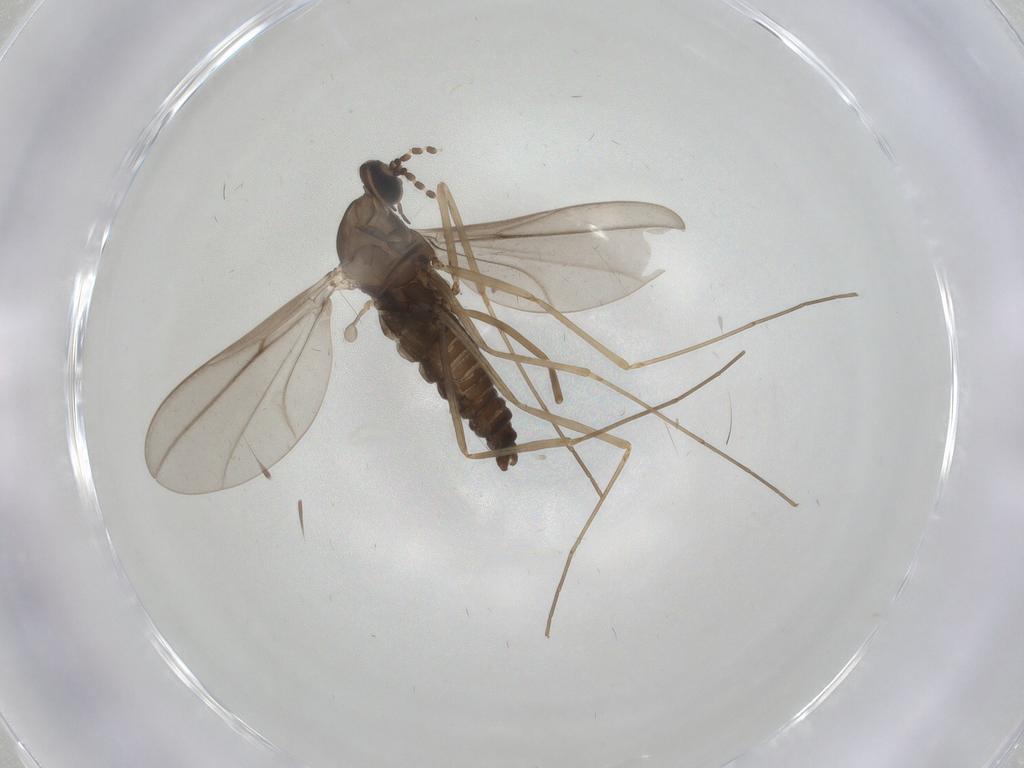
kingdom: Animalia
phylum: Arthropoda
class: Insecta
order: Diptera
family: Cecidomyiidae
